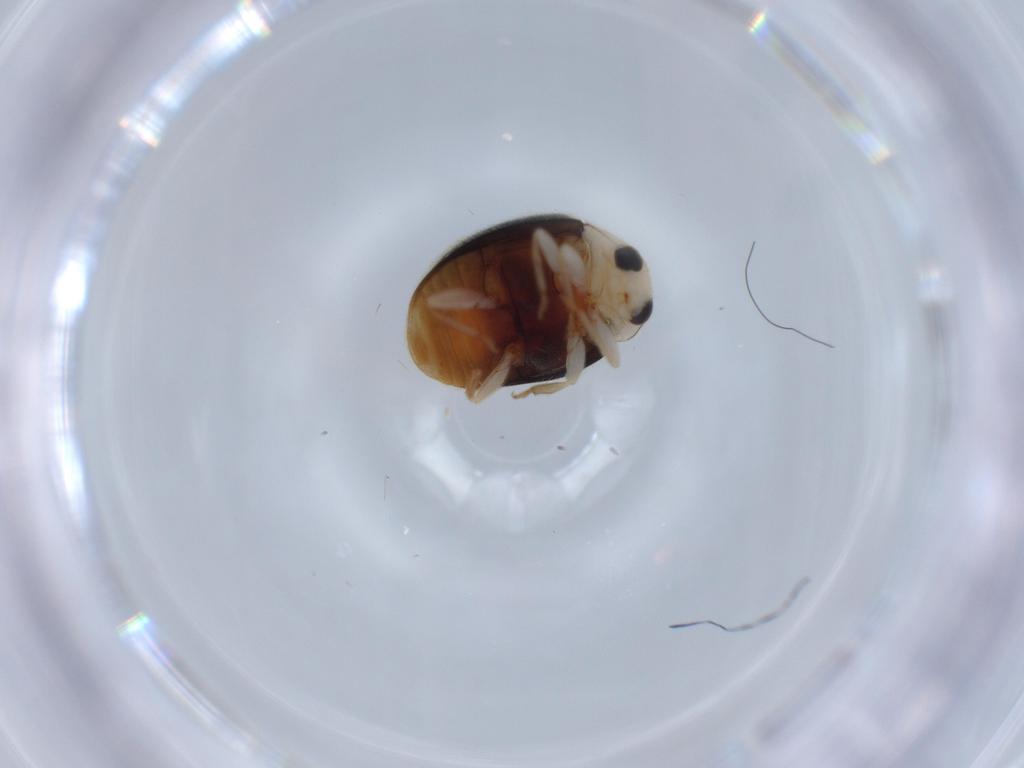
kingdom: Animalia
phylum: Arthropoda
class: Insecta
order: Coleoptera
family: Coccinellidae
